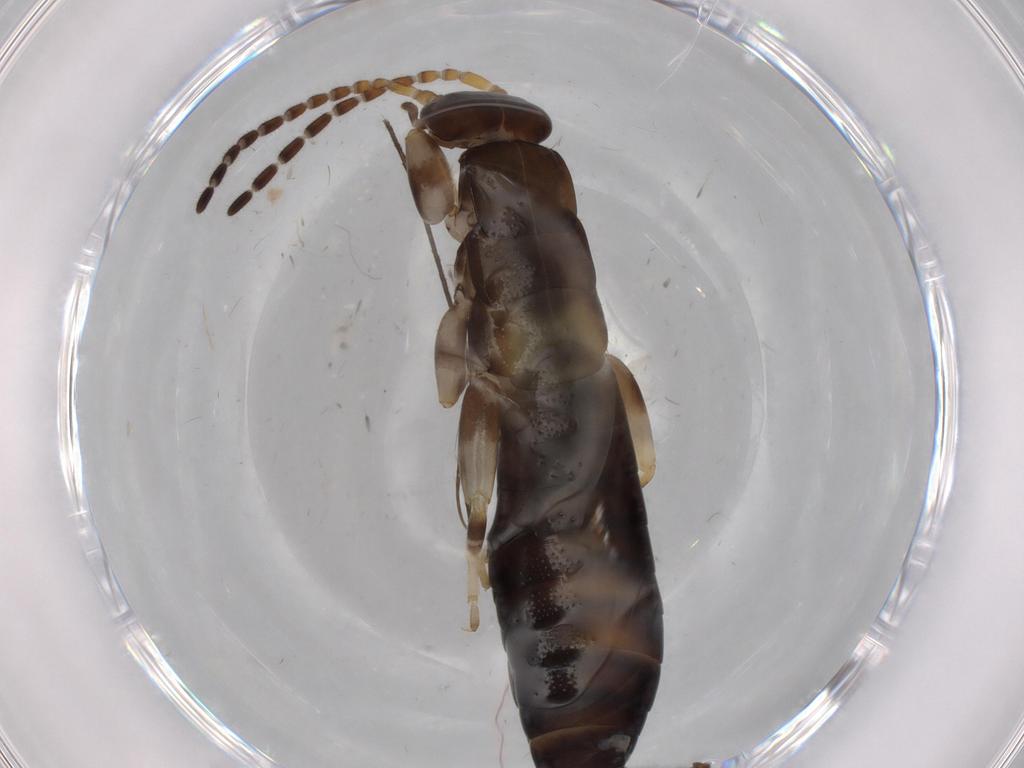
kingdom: Animalia
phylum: Arthropoda
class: Insecta
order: Dermaptera
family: Labiduridae
